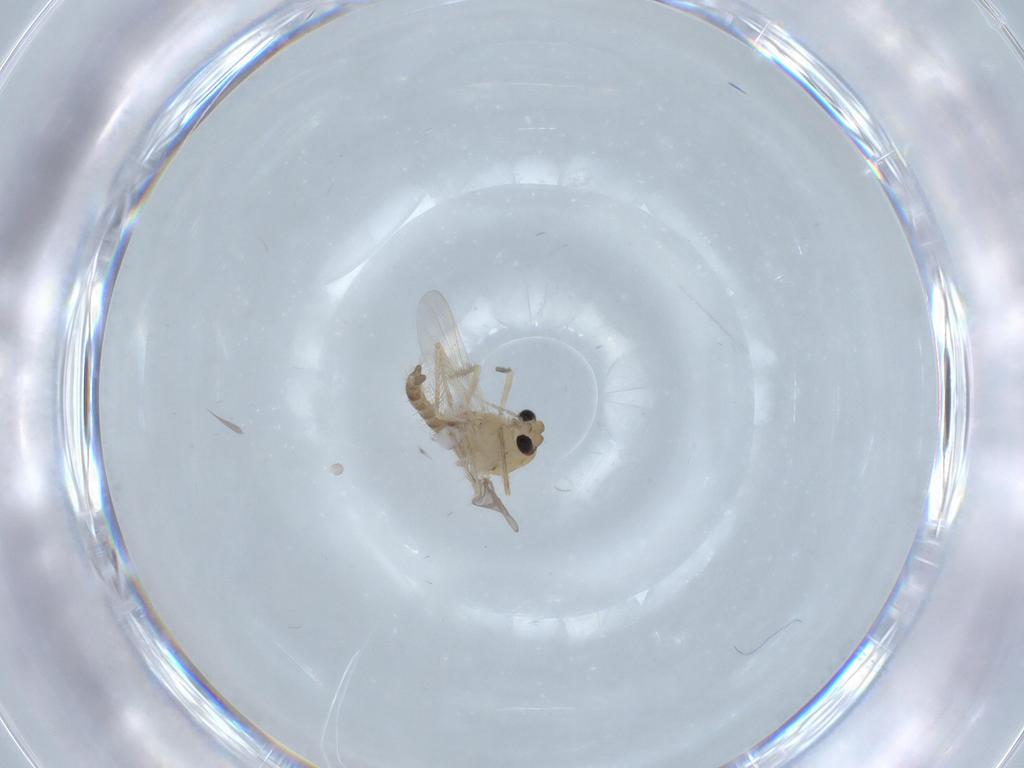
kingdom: Animalia
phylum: Arthropoda
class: Insecta
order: Diptera
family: Chironomidae
